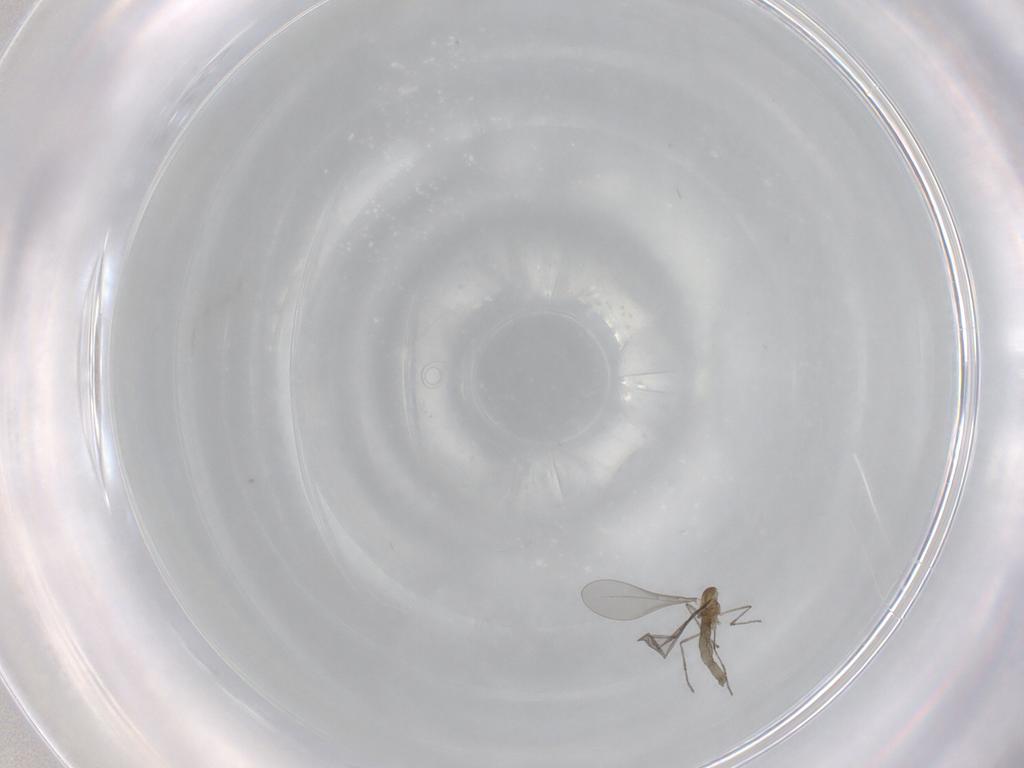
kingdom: Animalia
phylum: Arthropoda
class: Insecta
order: Diptera
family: Cecidomyiidae
